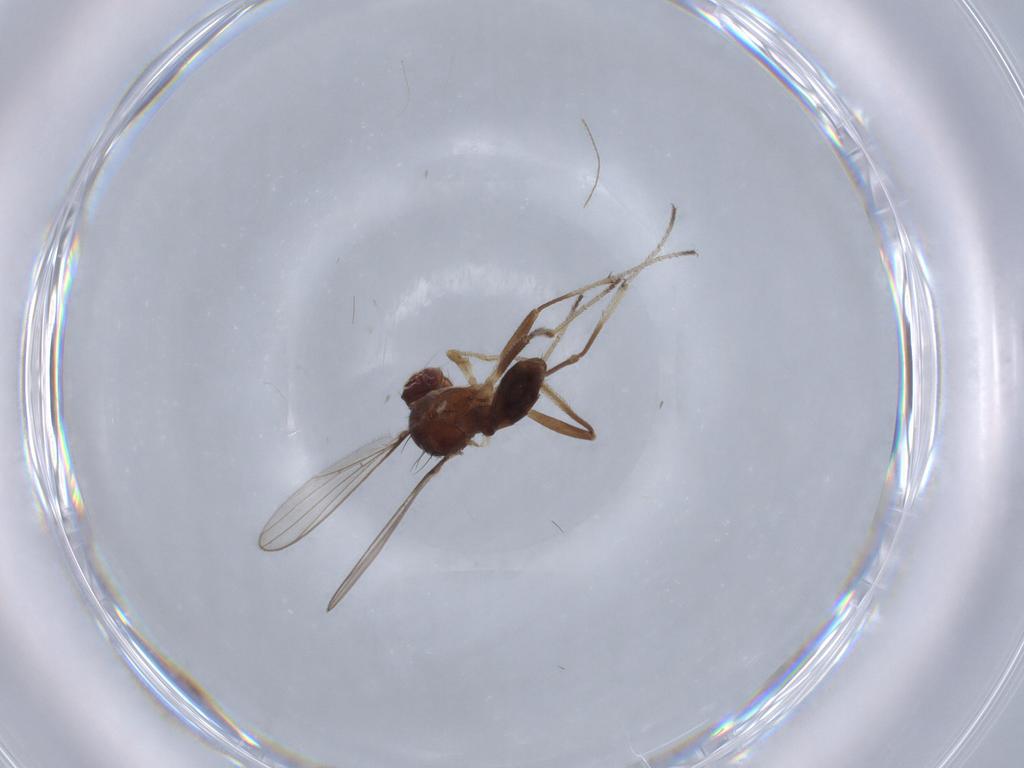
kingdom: Animalia
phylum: Arthropoda
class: Insecta
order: Diptera
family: Sepsidae
